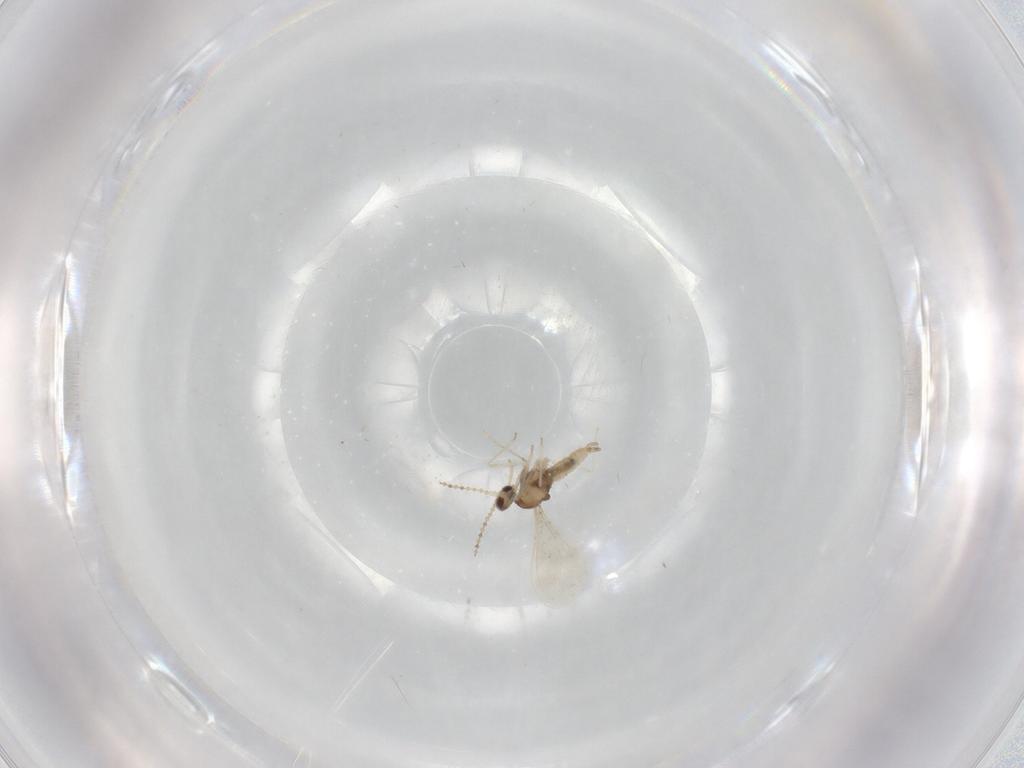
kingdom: Animalia
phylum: Arthropoda
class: Insecta
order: Diptera
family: Cecidomyiidae
